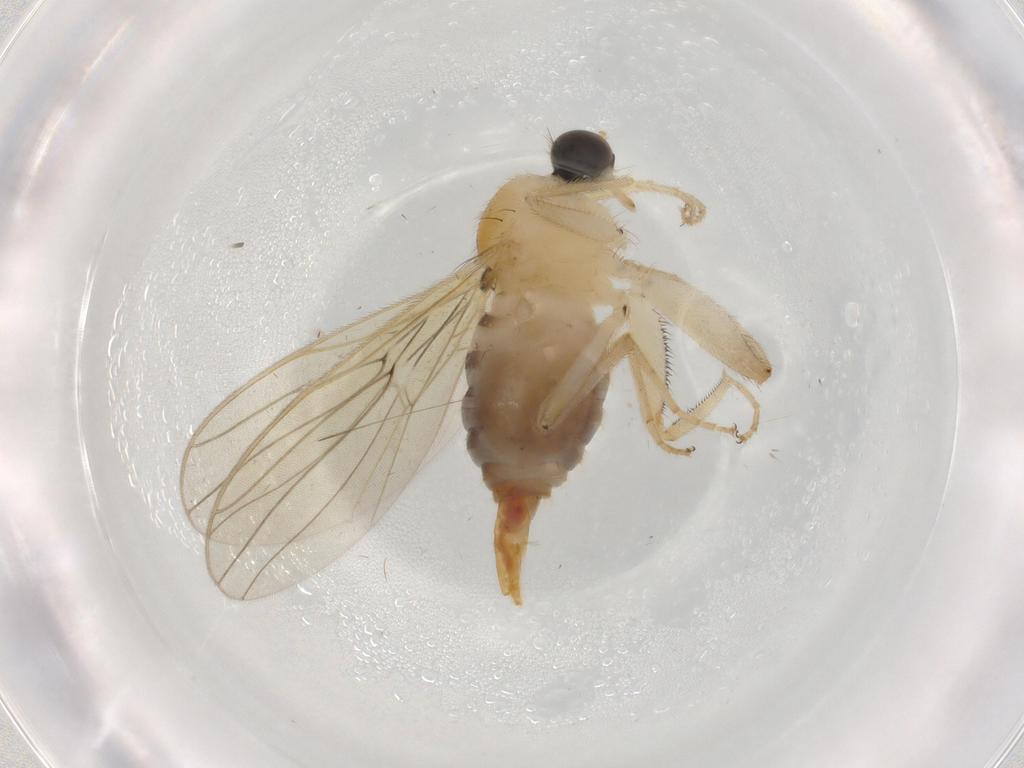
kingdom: Animalia
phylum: Arthropoda
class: Insecta
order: Diptera
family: Hybotidae
